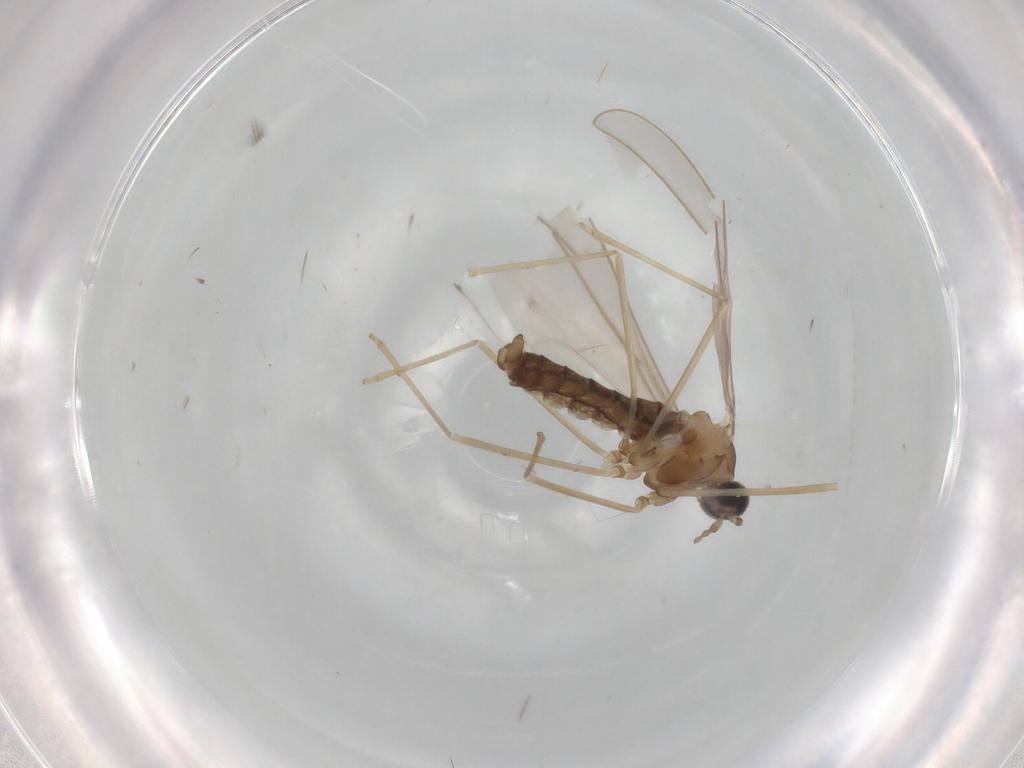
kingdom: Animalia
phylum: Arthropoda
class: Insecta
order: Diptera
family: Cecidomyiidae
